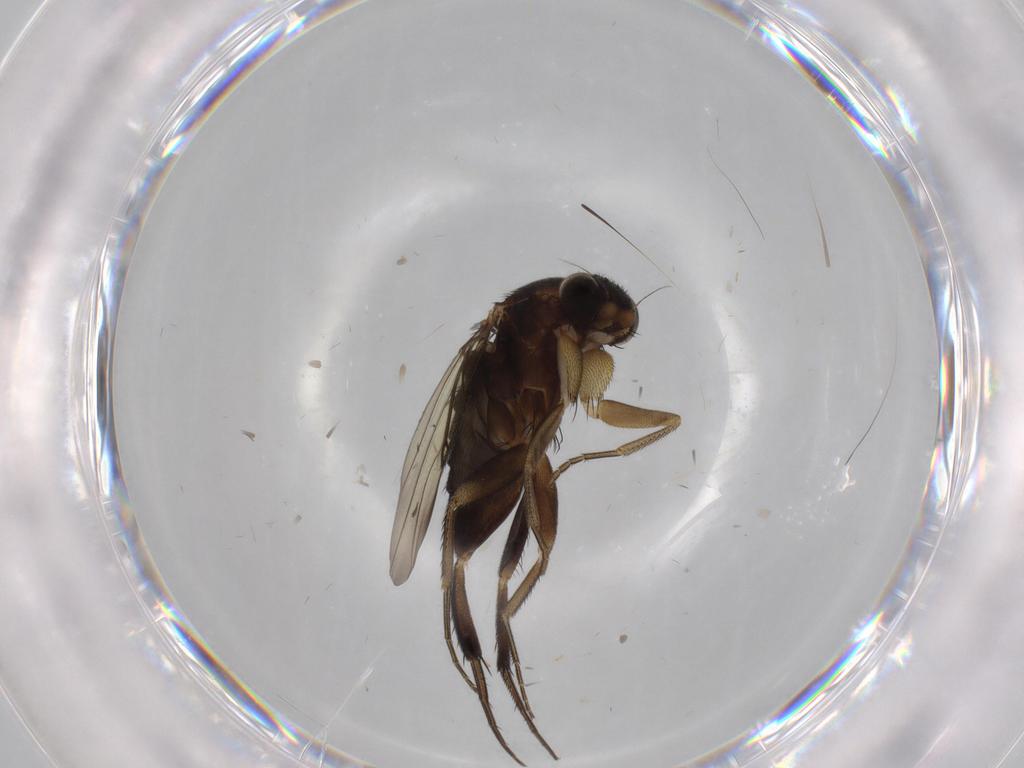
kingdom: Animalia
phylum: Arthropoda
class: Insecta
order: Diptera
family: Phoridae
